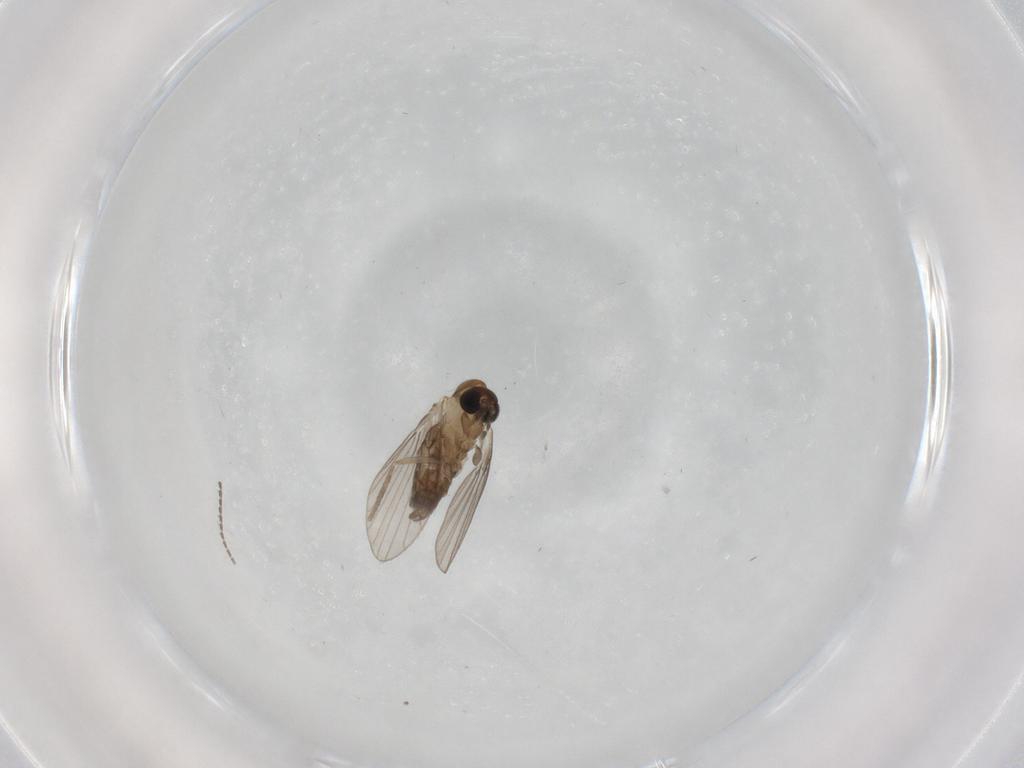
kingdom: Animalia
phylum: Arthropoda
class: Insecta
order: Diptera
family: Psychodidae
